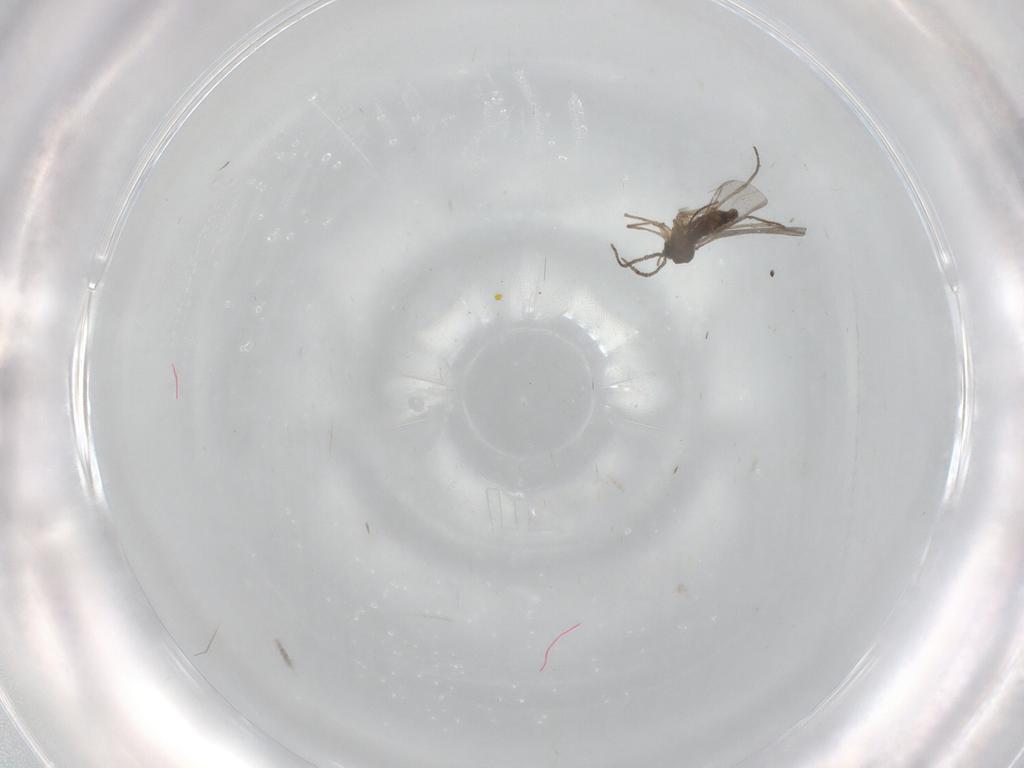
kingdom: Animalia
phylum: Arthropoda
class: Insecta
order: Diptera
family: Sciaridae
